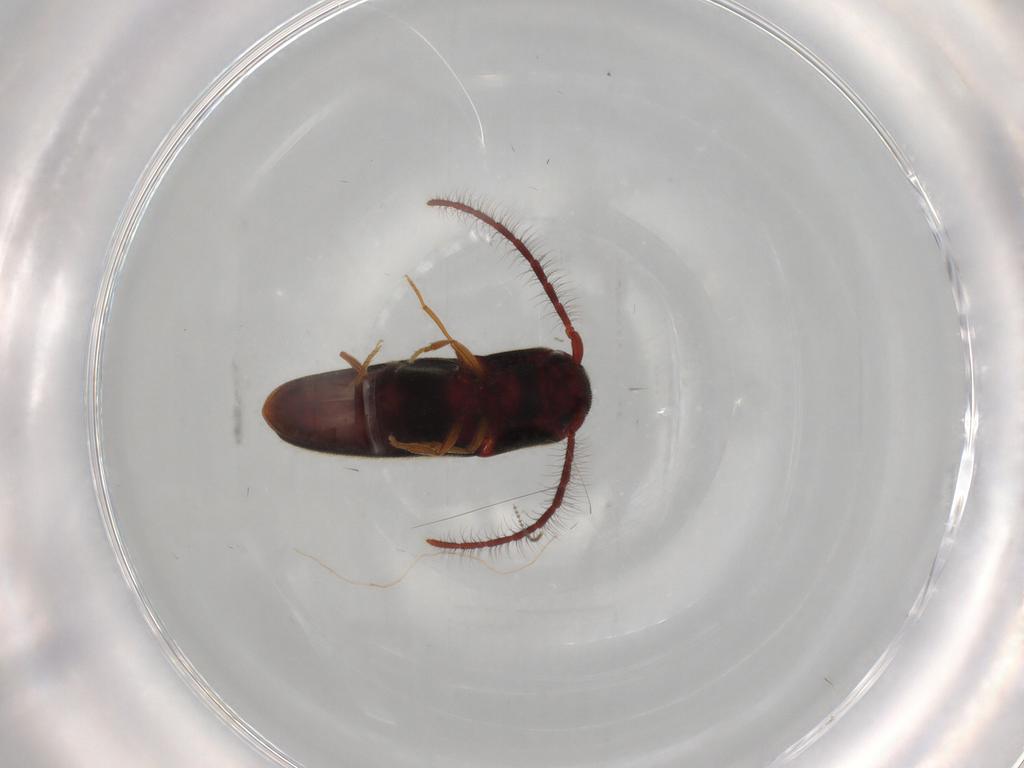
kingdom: Animalia
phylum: Arthropoda
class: Insecta
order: Coleoptera
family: Eucnemidae
